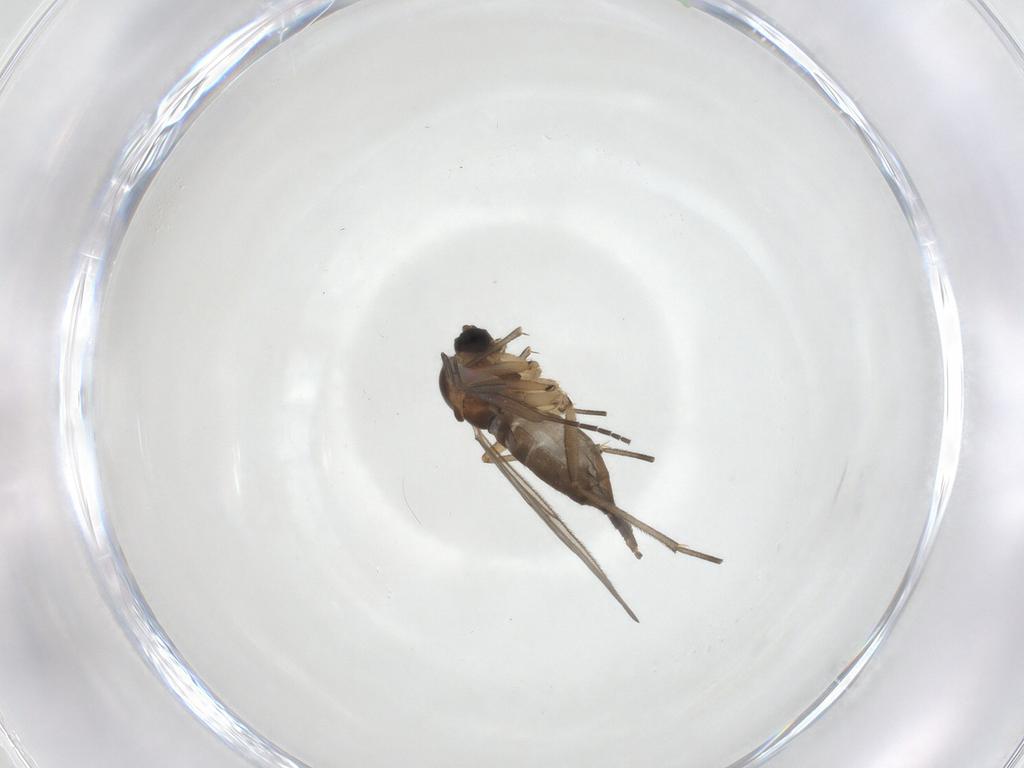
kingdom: Animalia
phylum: Arthropoda
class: Insecta
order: Diptera
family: Sciaridae
